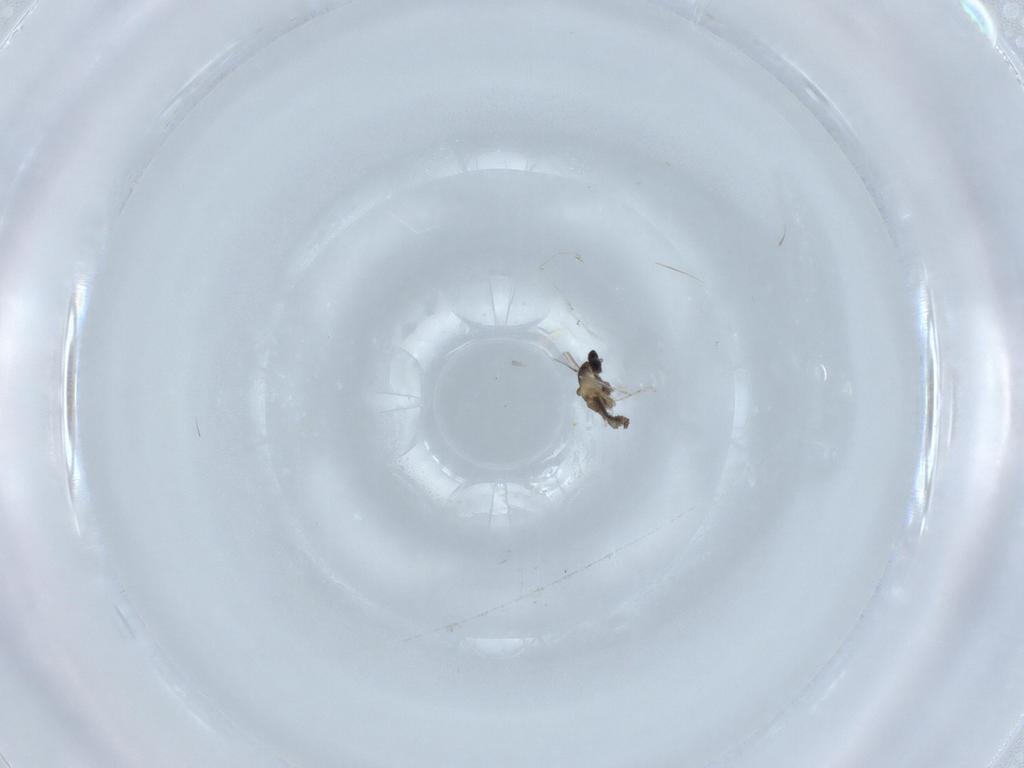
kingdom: Animalia
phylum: Arthropoda
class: Insecta
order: Diptera
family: Cecidomyiidae
